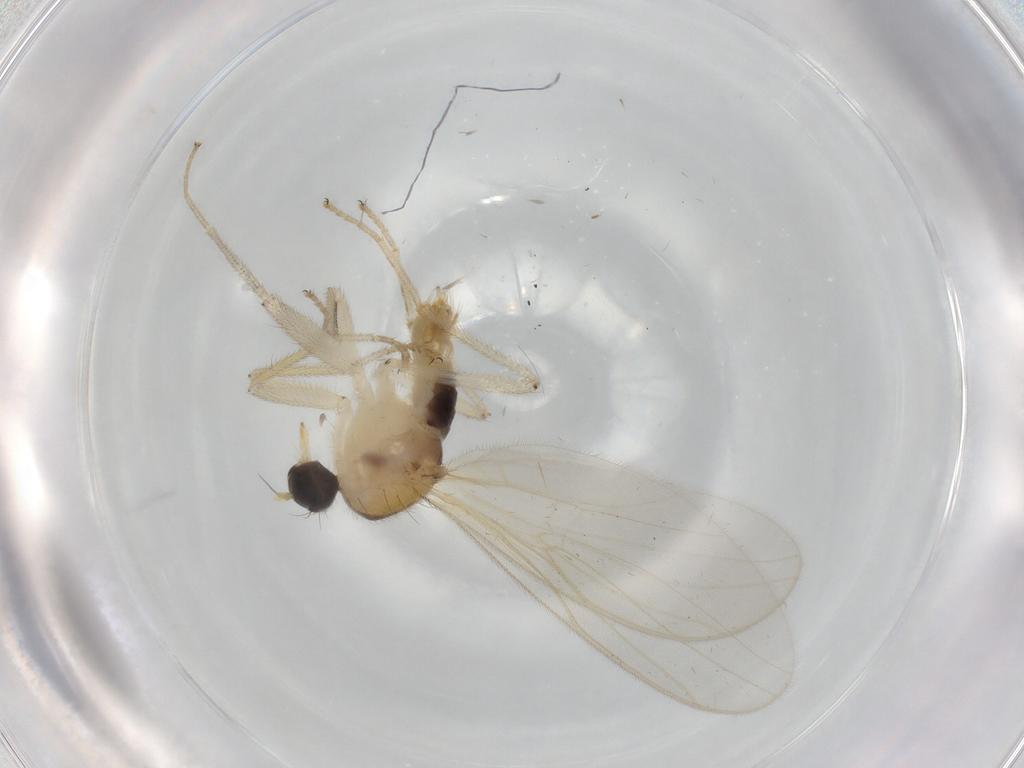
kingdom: Animalia
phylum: Arthropoda
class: Insecta
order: Diptera
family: Hybotidae
